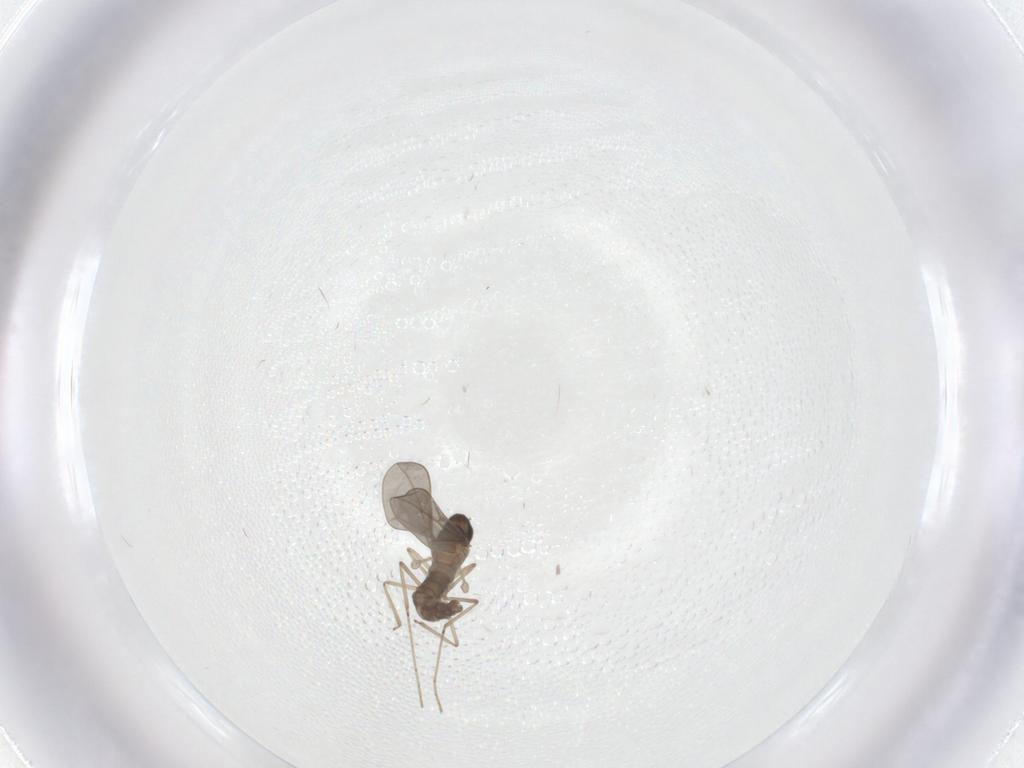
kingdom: Animalia
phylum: Arthropoda
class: Insecta
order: Diptera
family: Cecidomyiidae
